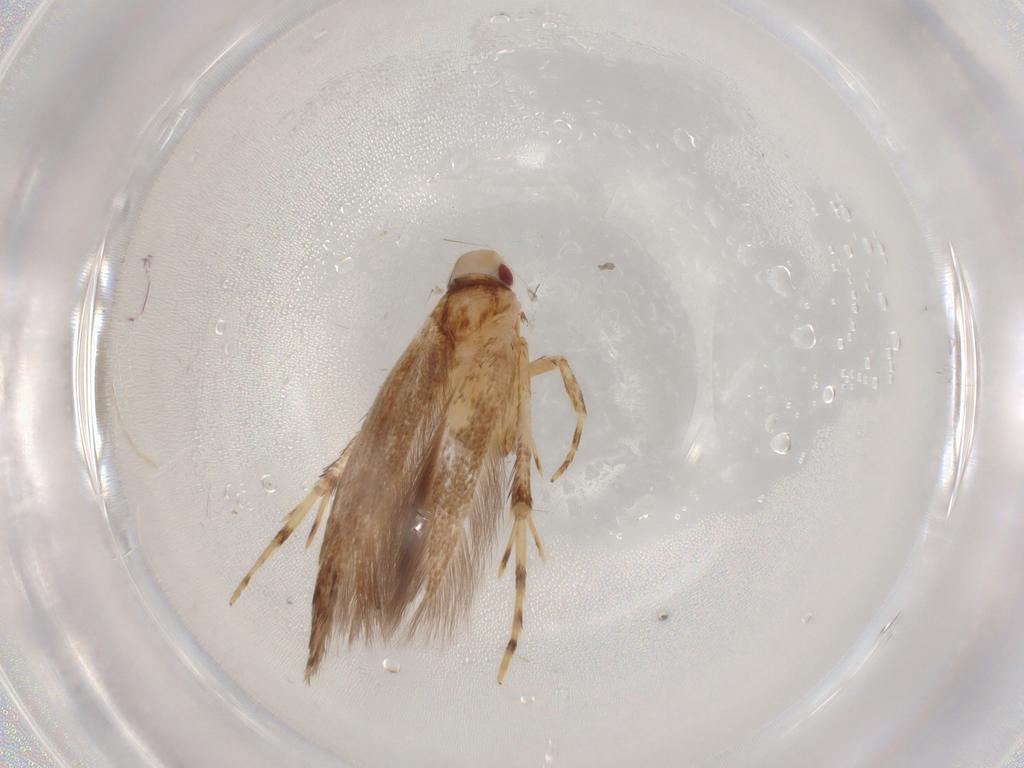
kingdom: Animalia
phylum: Arthropoda
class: Insecta
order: Lepidoptera
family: Cosmopterigidae
